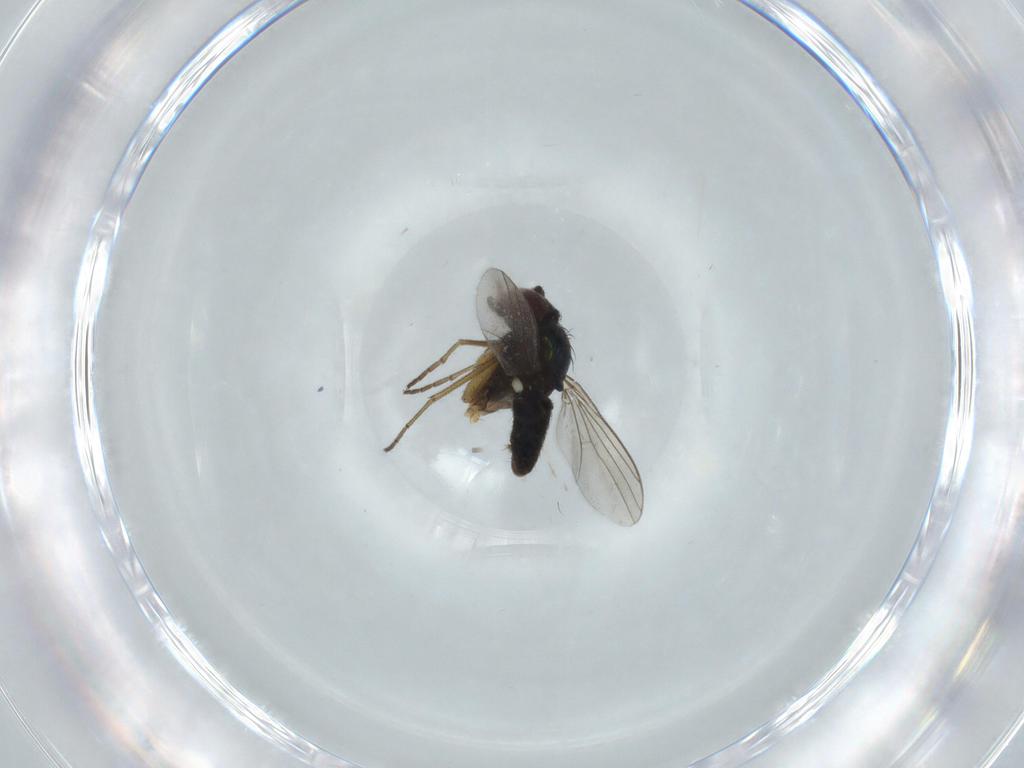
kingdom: Animalia
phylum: Arthropoda
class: Insecta
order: Diptera
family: Dolichopodidae
